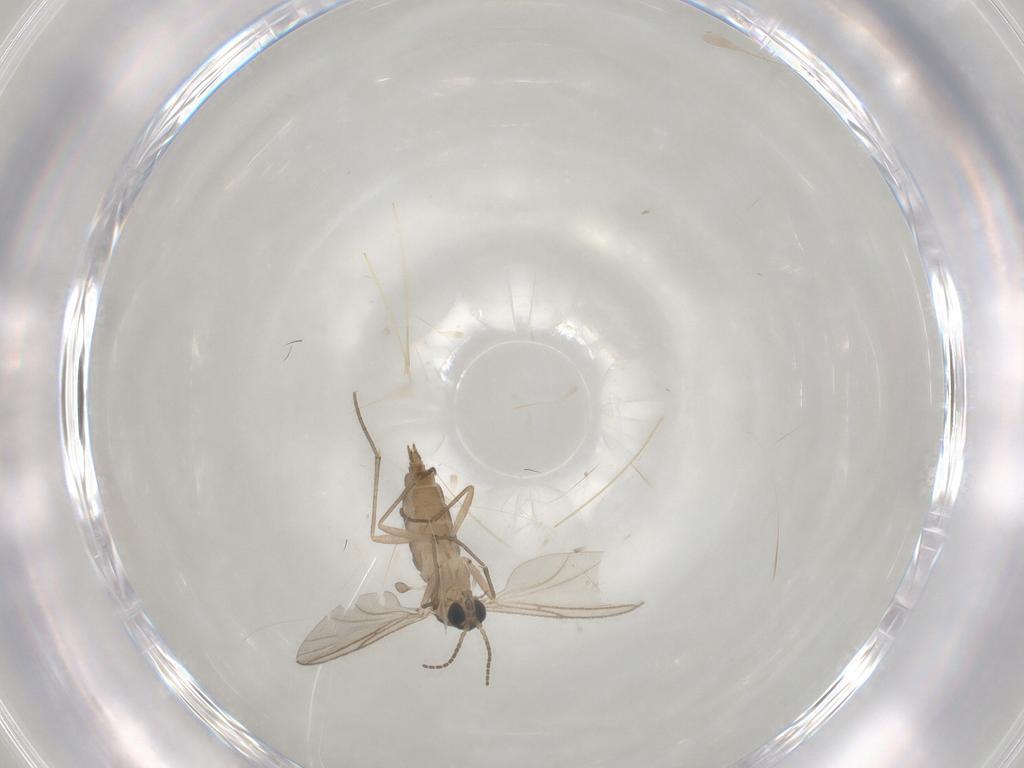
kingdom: Animalia
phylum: Arthropoda
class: Insecta
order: Diptera
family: Sciaridae
